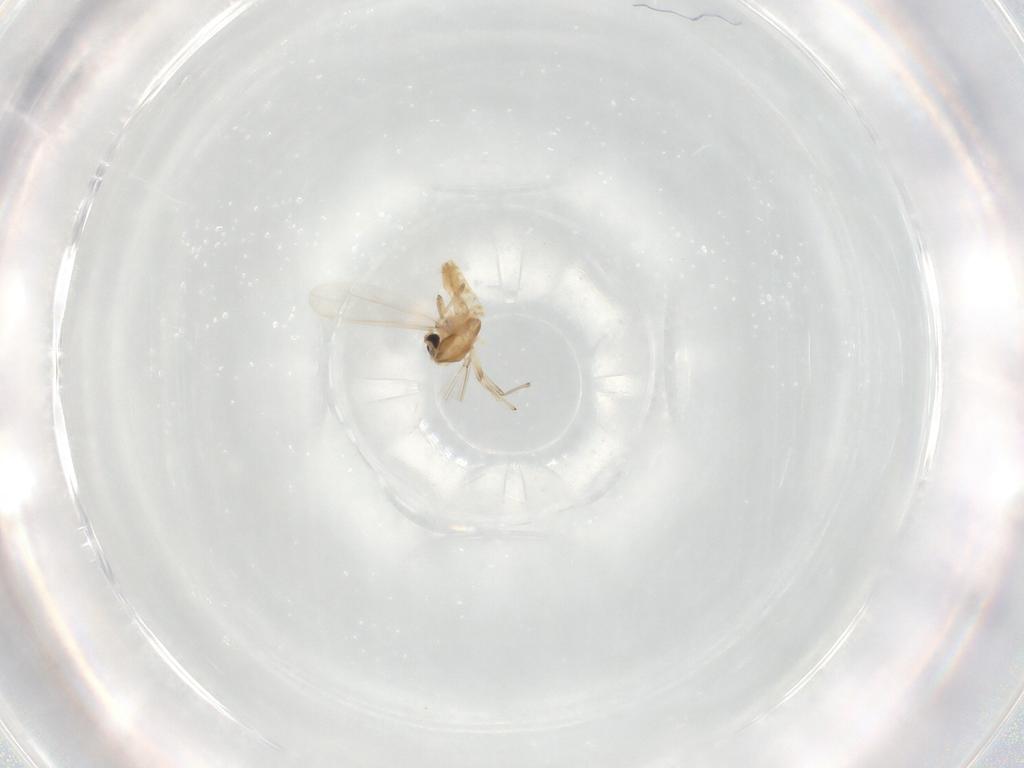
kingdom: Animalia
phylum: Arthropoda
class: Insecta
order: Diptera
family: Chironomidae
